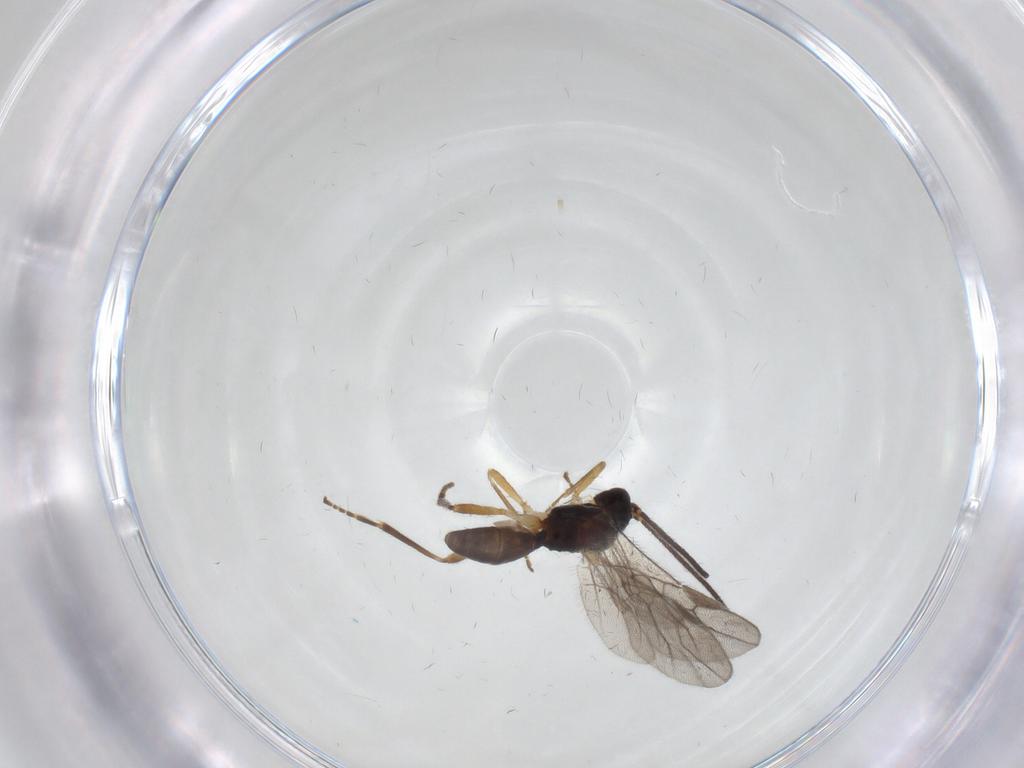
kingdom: Animalia
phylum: Arthropoda
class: Insecta
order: Hymenoptera
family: Braconidae
